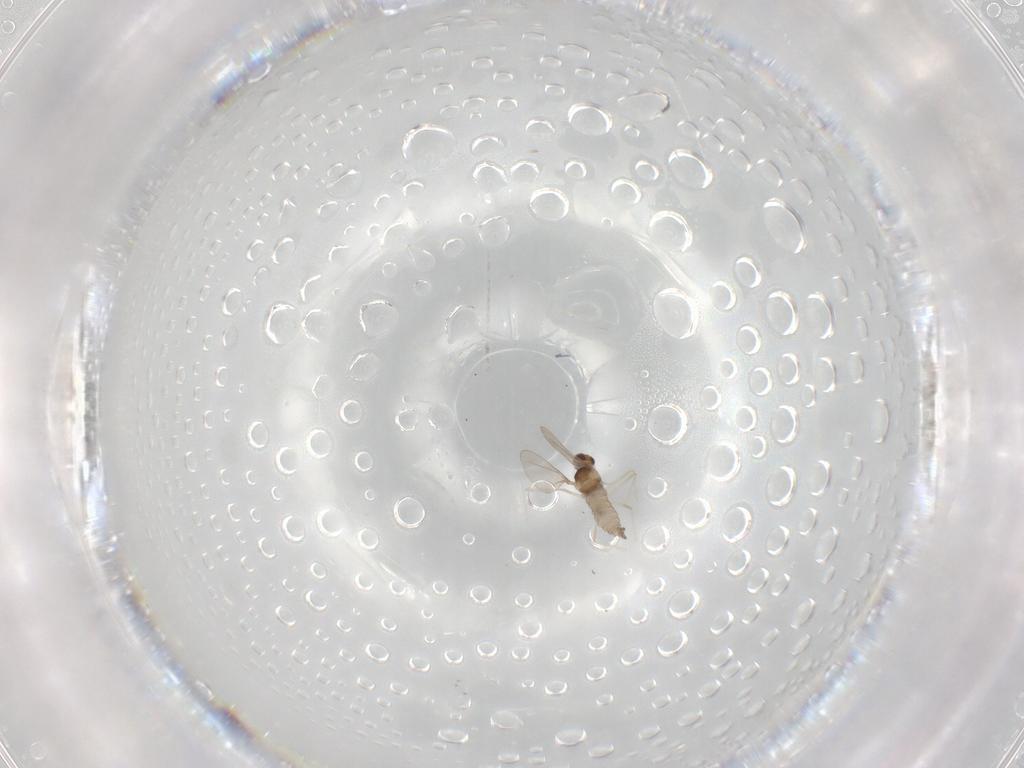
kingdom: Animalia
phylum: Arthropoda
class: Insecta
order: Diptera
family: Cecidomyiidae
